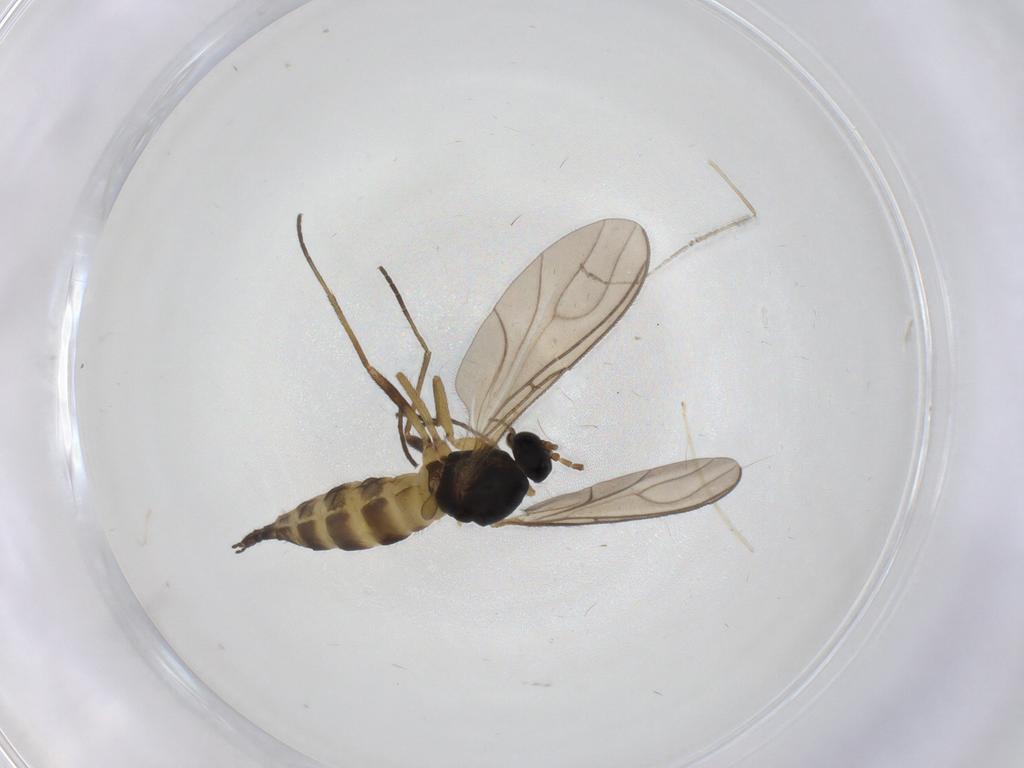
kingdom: Animalia
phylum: Arthropoda
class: Insecta
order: Diptera
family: Sciaridae
